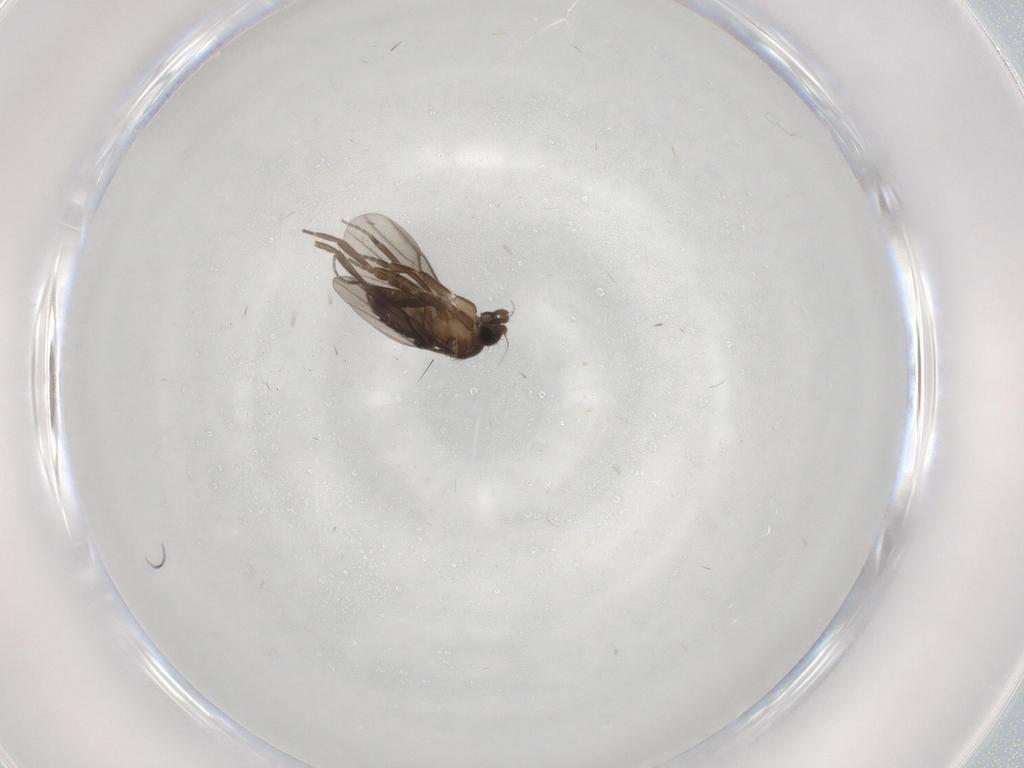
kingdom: Animalia
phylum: Arthropoda
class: Insecta
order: Diptera
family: Phoridae
